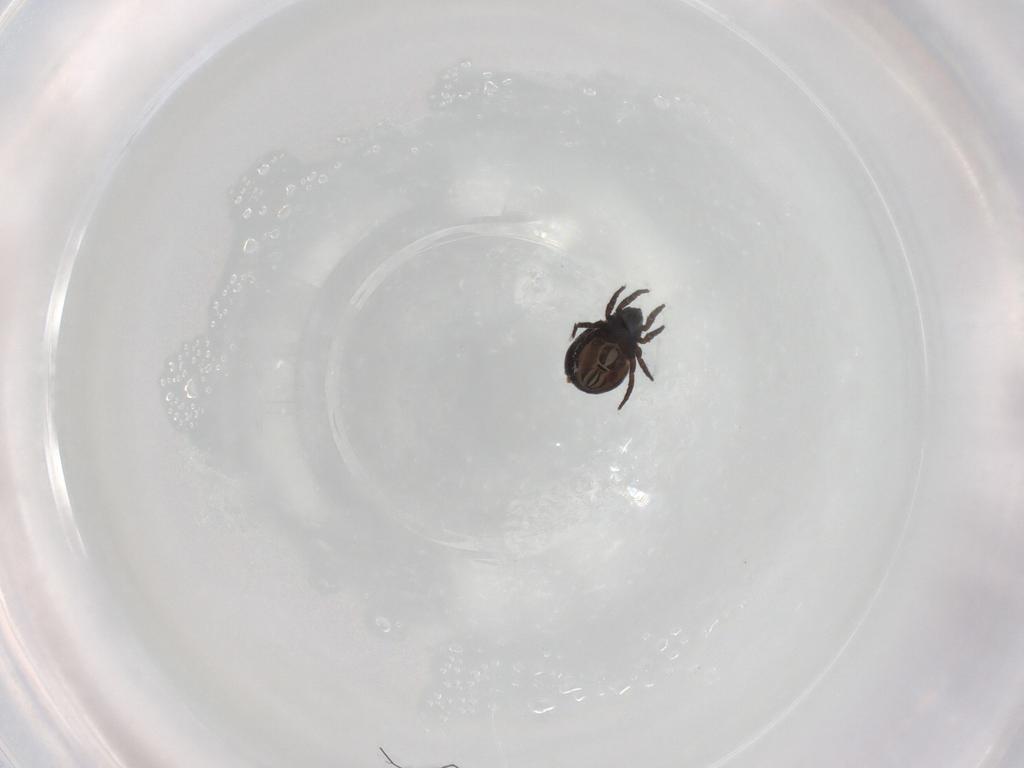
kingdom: Animalia
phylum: Arthropoda
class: Arachnida
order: Sarcoptiformes
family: Crotoniidae
